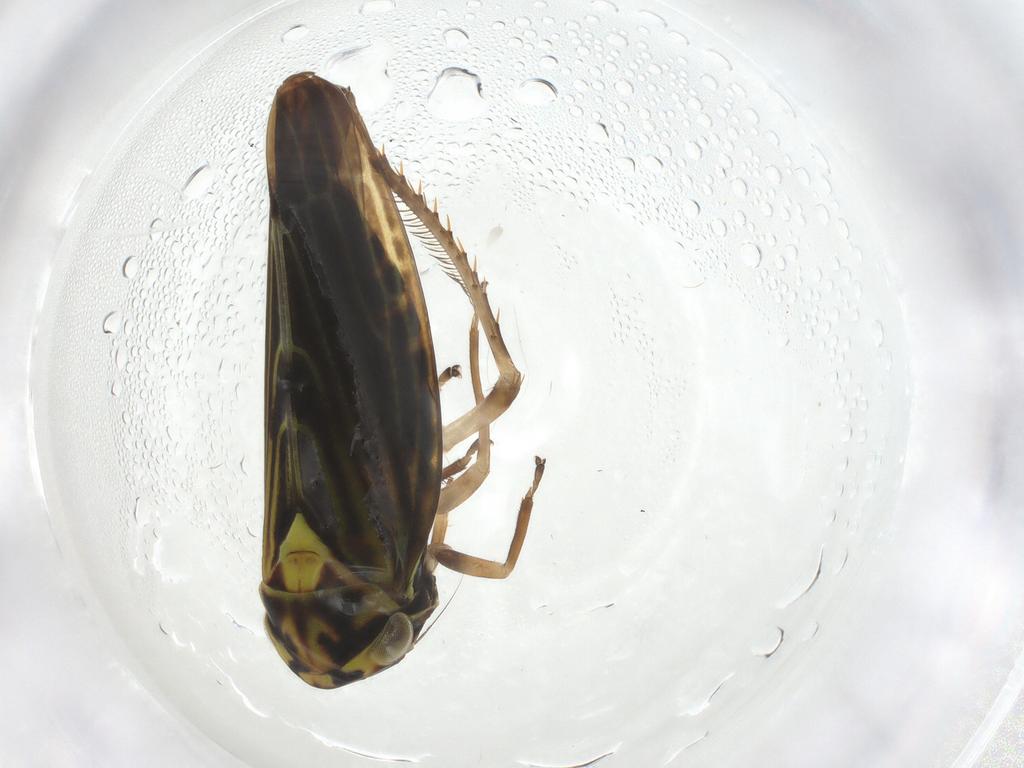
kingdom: Animalia
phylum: Arthropoda
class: Insecta
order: Hemiptera
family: Cicadellidae
